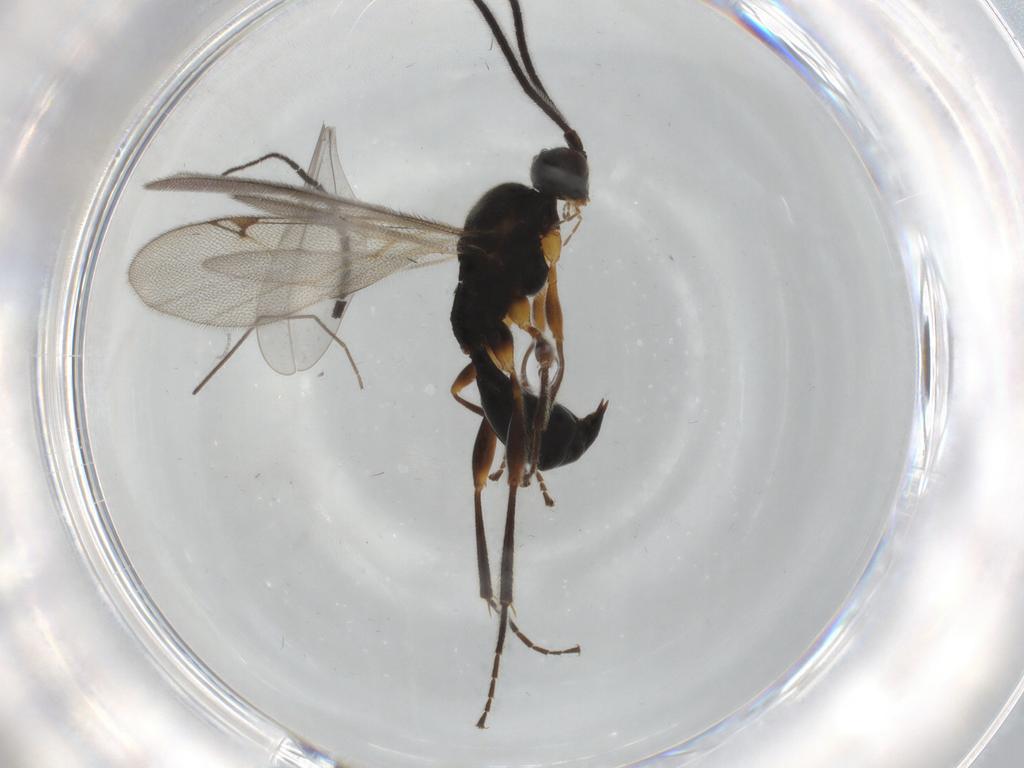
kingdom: Animalia
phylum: Arthropoda
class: Insecta
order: Hymenoptera
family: Proctotrupidae
